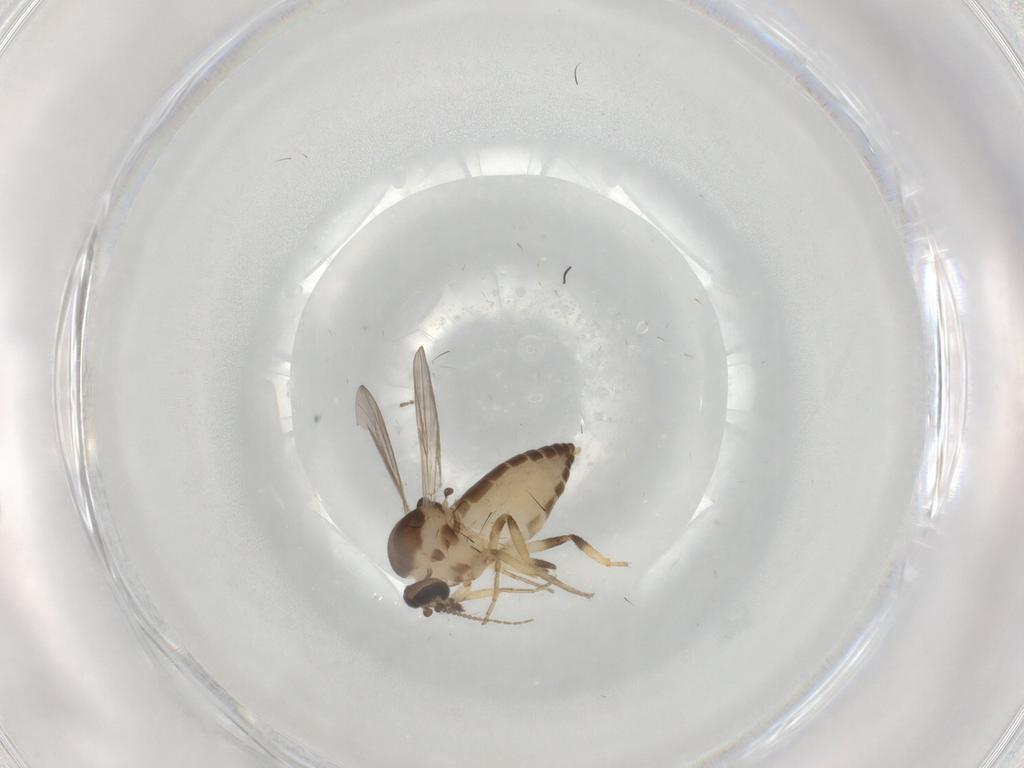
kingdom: Animalia
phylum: Arthropoda
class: Insecta
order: Diptera
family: Ceratopogonidae
